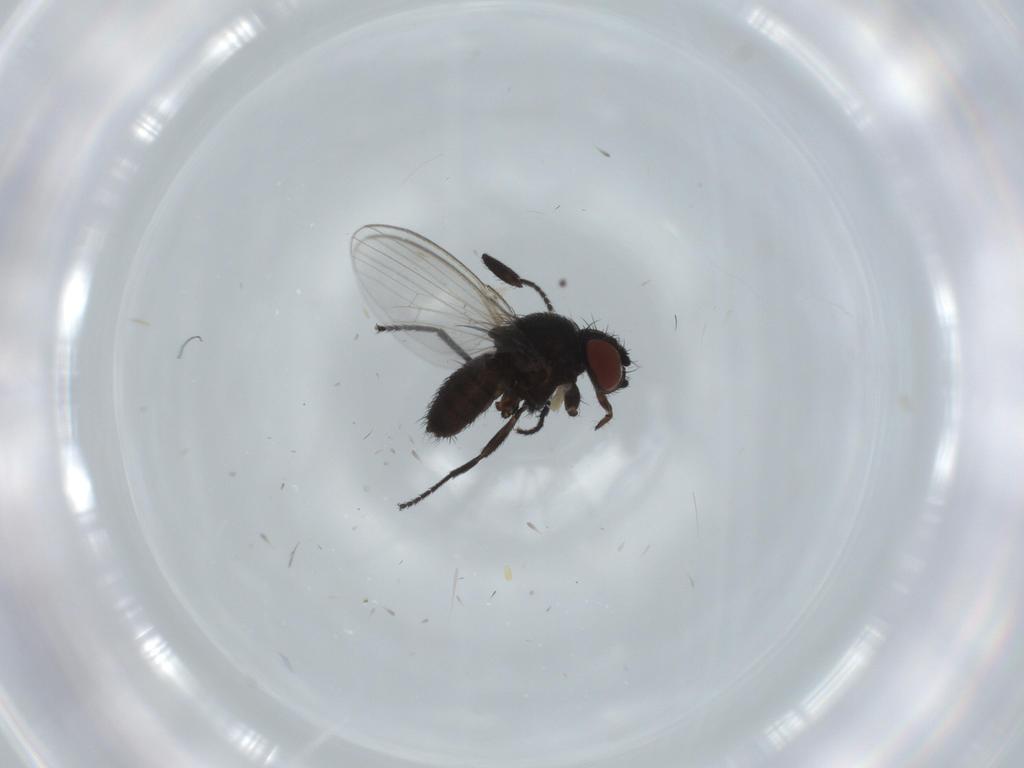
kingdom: Animalia
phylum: Arthropoda
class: Insecta
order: Diptera
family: Milichiidae
